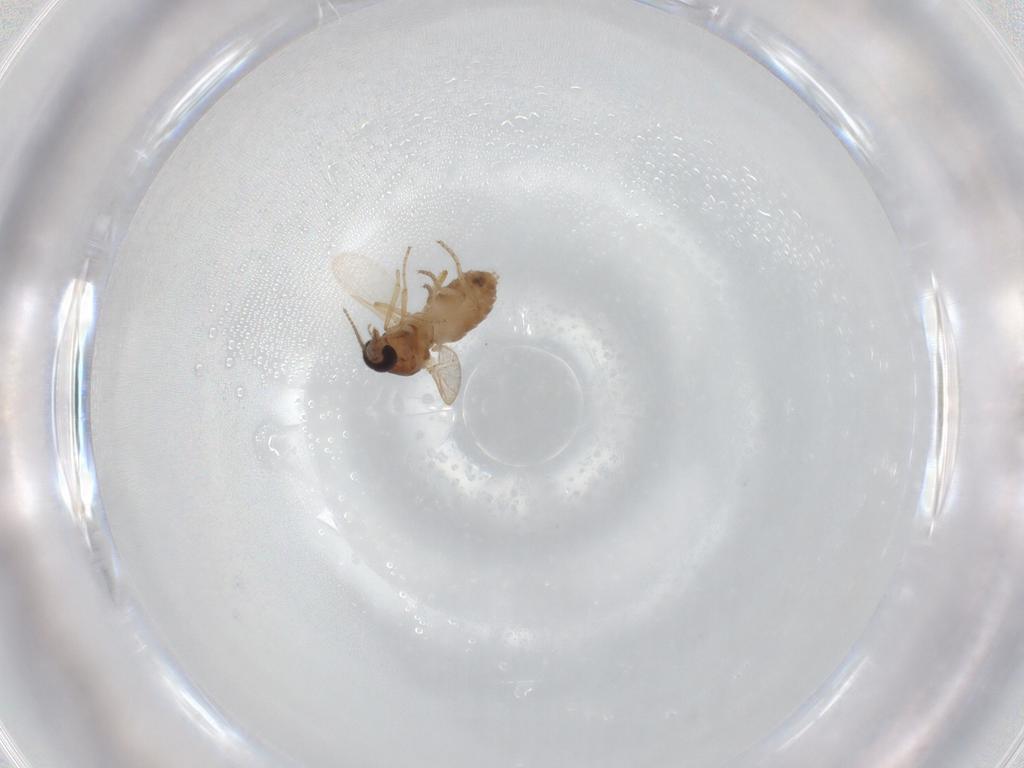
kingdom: Animalia
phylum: Arthropoda
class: Insecta
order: Diptera
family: Ceratopogonidae
